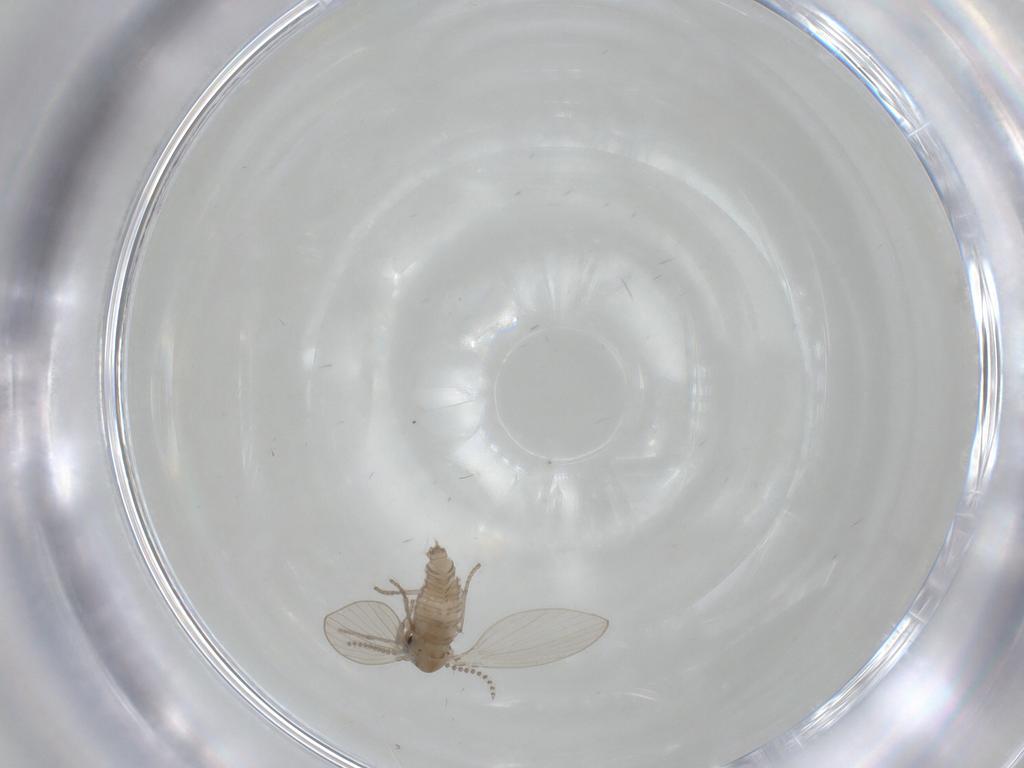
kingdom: Animalia
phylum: Arthropoda
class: Insecta
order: Diptera
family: Psychodidae
